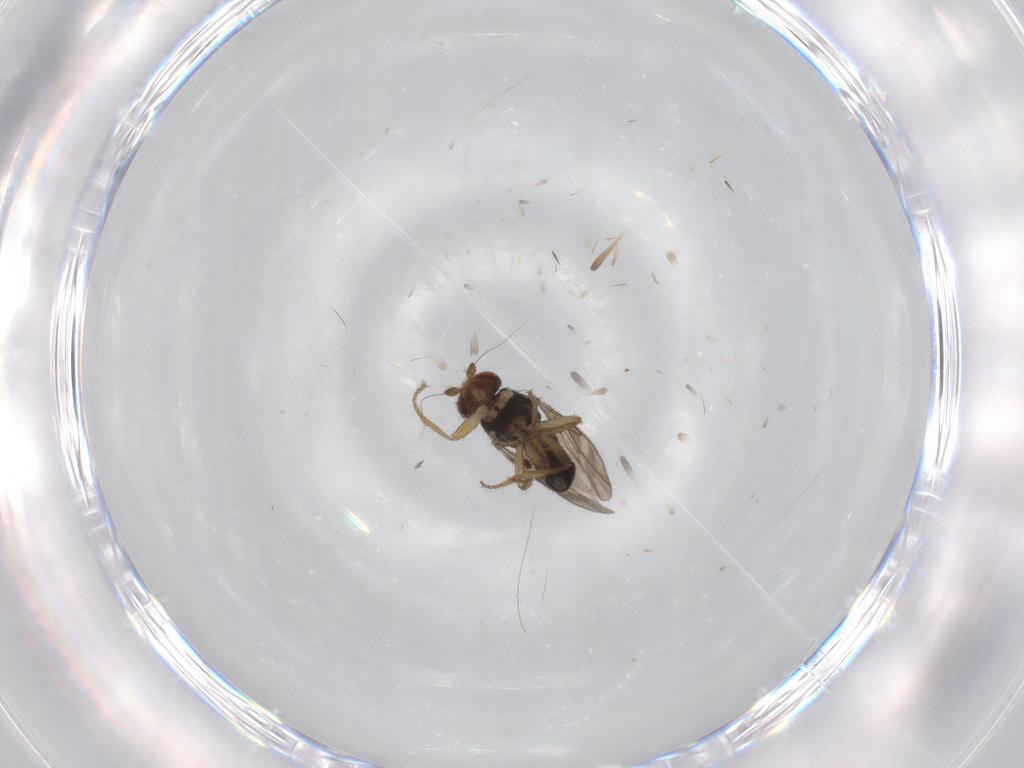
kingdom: Animalia
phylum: Arthropoda
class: Insecta
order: Diptera
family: Sphaeroceridae
